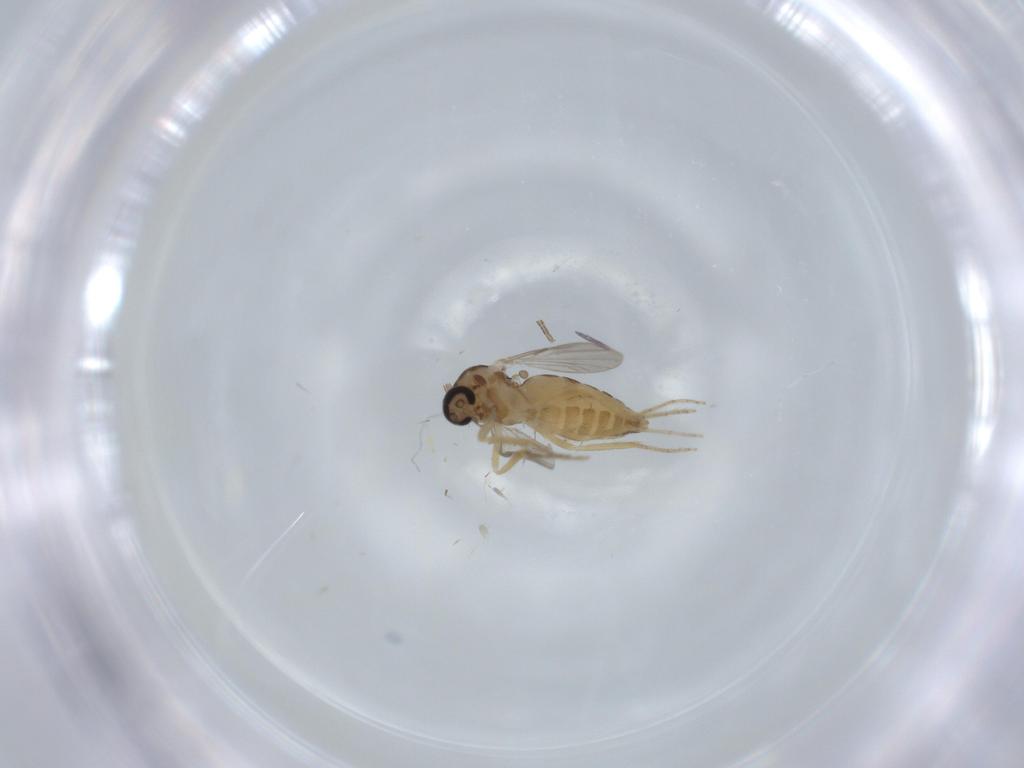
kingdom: Animalia
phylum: Arthropoda
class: Insecta
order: Diptera
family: Ceratopogonidae
